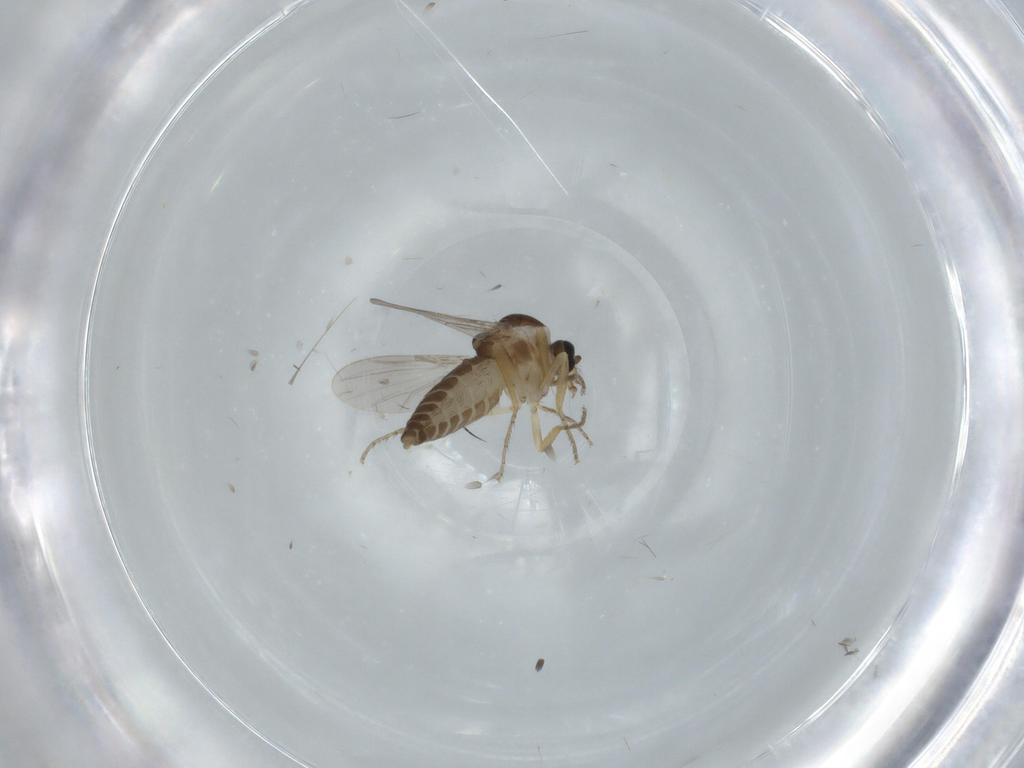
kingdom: Animalia
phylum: Arthropoda
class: Insecta
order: Diptera
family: Ceratopogonidae
